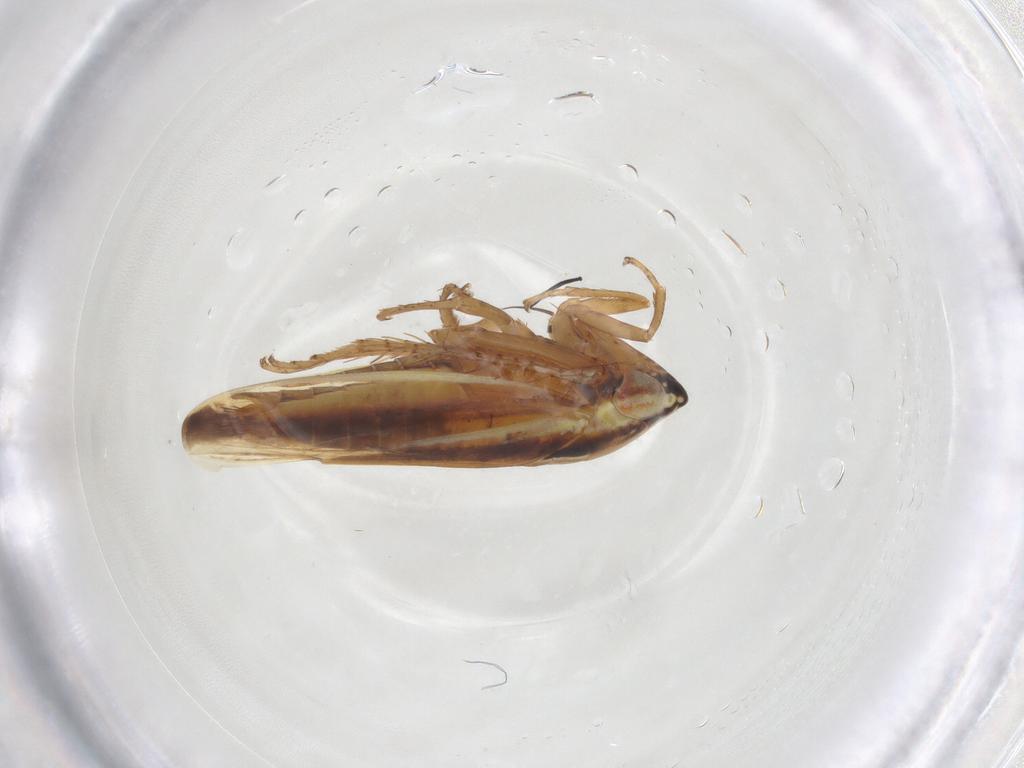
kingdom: Animalia
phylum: Arthropoda
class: Insecta
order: Hemiptera
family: Cicadellidae
